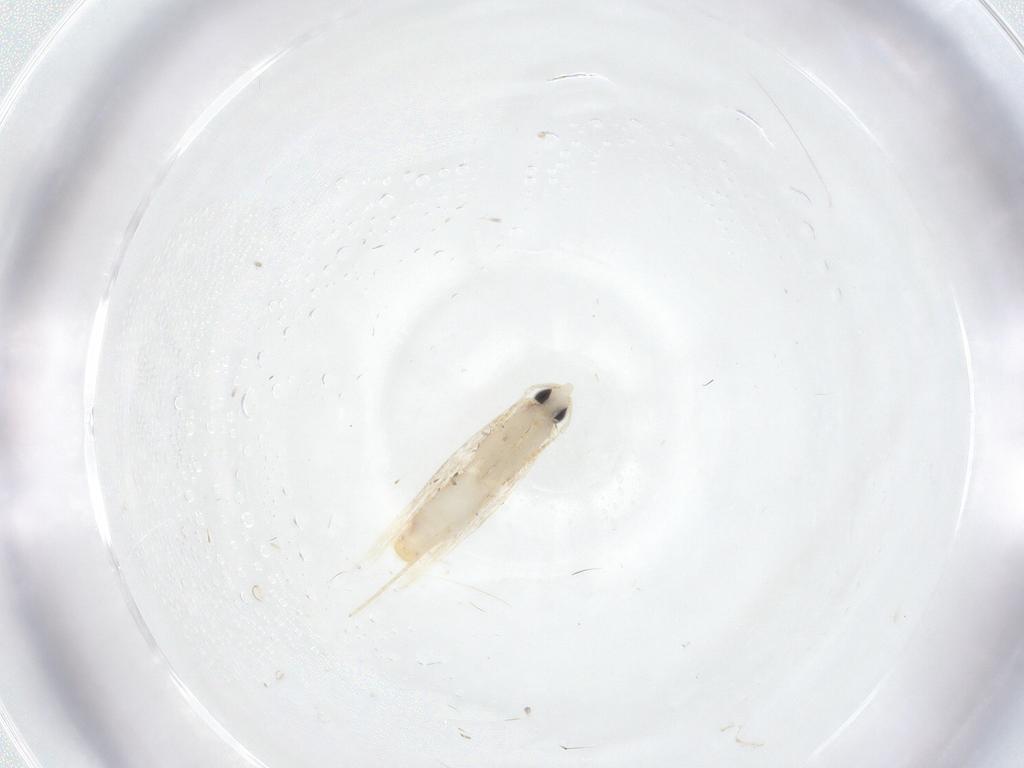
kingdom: Animalia
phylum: Arthropoda
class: Insecta
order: Lepidoptera
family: Saturniidae
